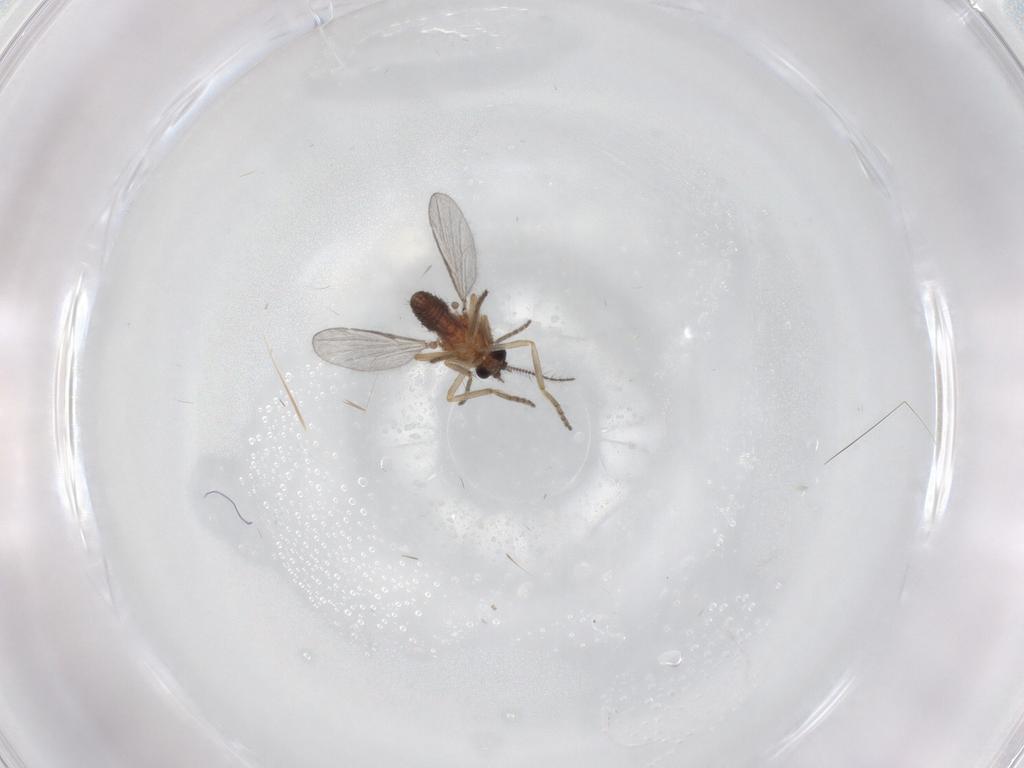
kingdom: Animalia
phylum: Arthropoda
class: Insecta
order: Diptera
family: Ceratopogonidae
